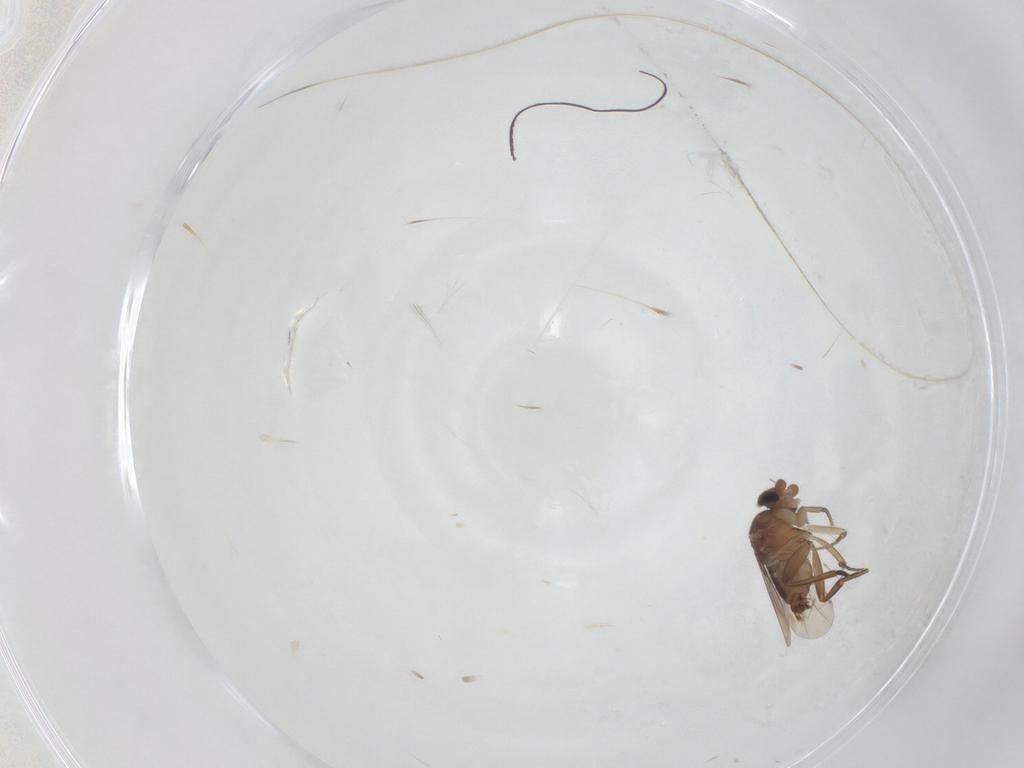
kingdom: Animalia
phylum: Arthropoda
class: Insecta
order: Diptera
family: Phoridae
